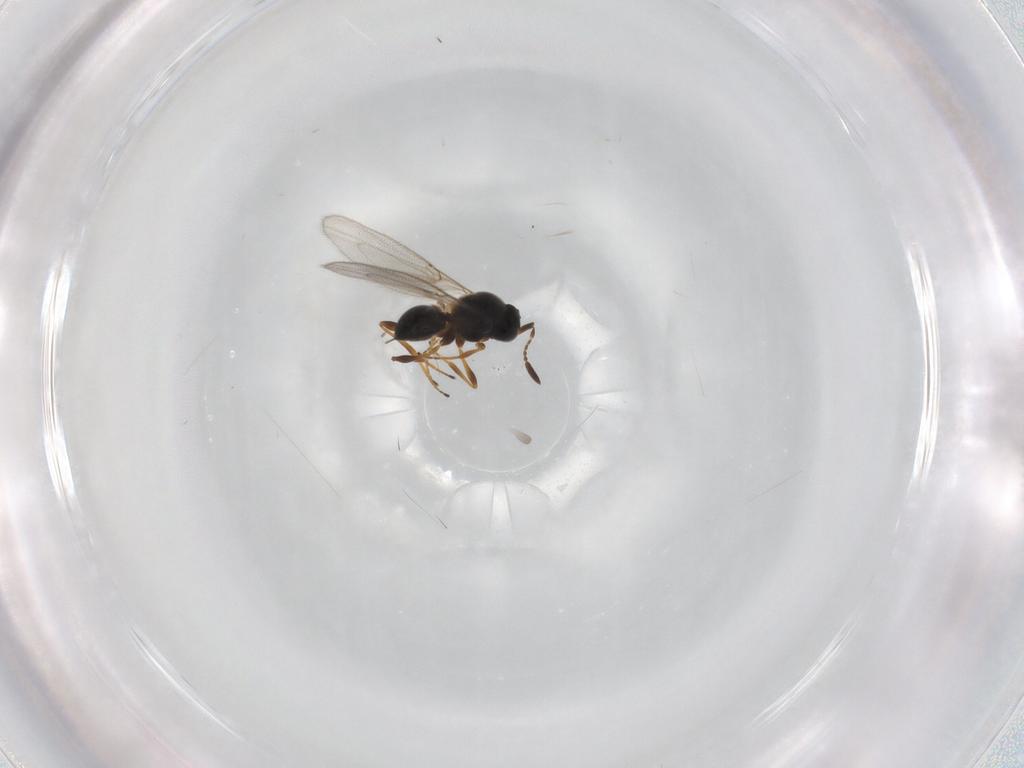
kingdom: Animalia
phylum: Arthropoda
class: Insecta
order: Hymenoptera
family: Platygastridae
